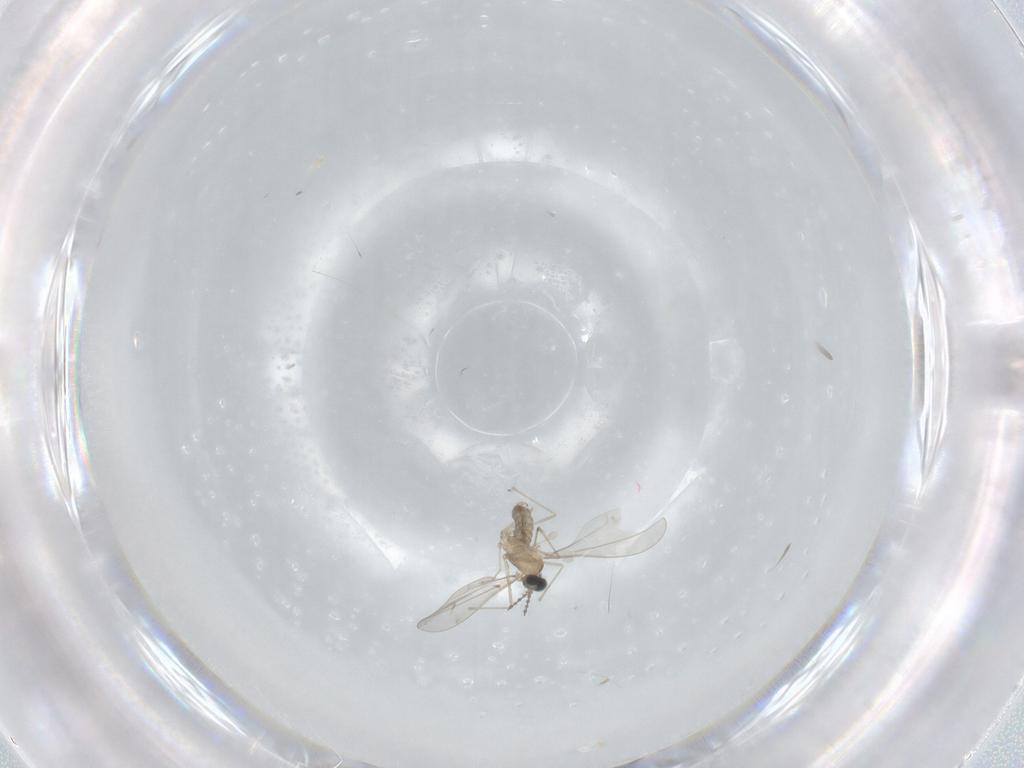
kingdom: Animalia
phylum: Arthropoda
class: Insecta
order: Diptera
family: Cecidomyiidae
